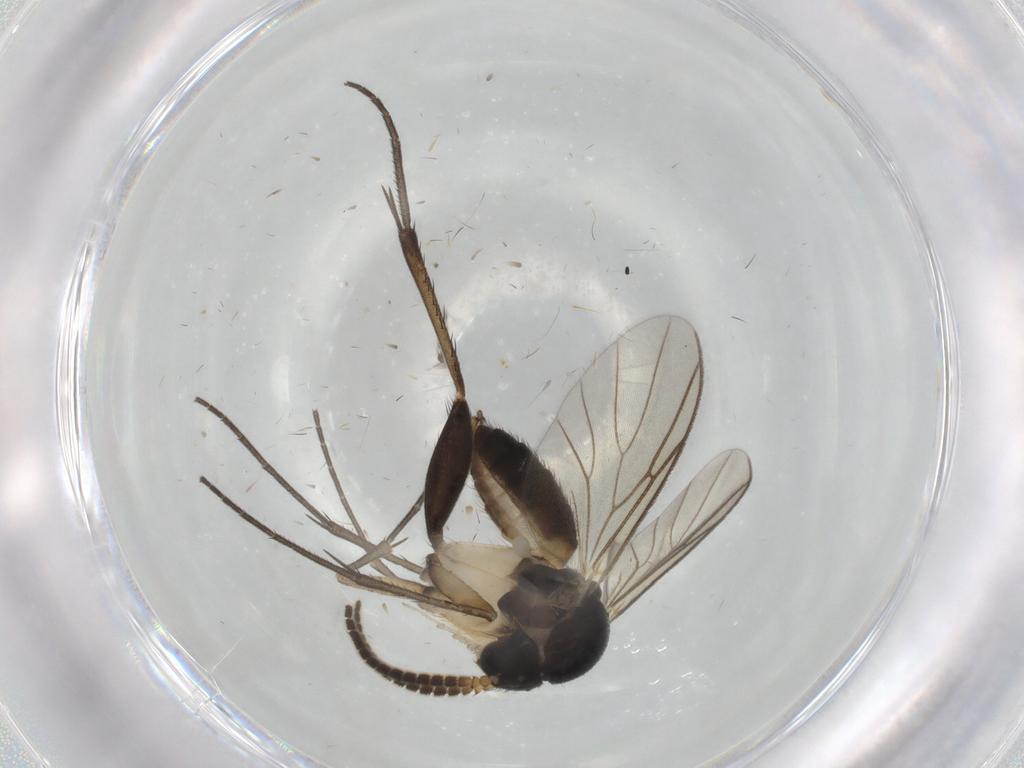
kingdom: Animalia
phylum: Arthropoda
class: Insecta
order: Diptera
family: Mycetophilidae
